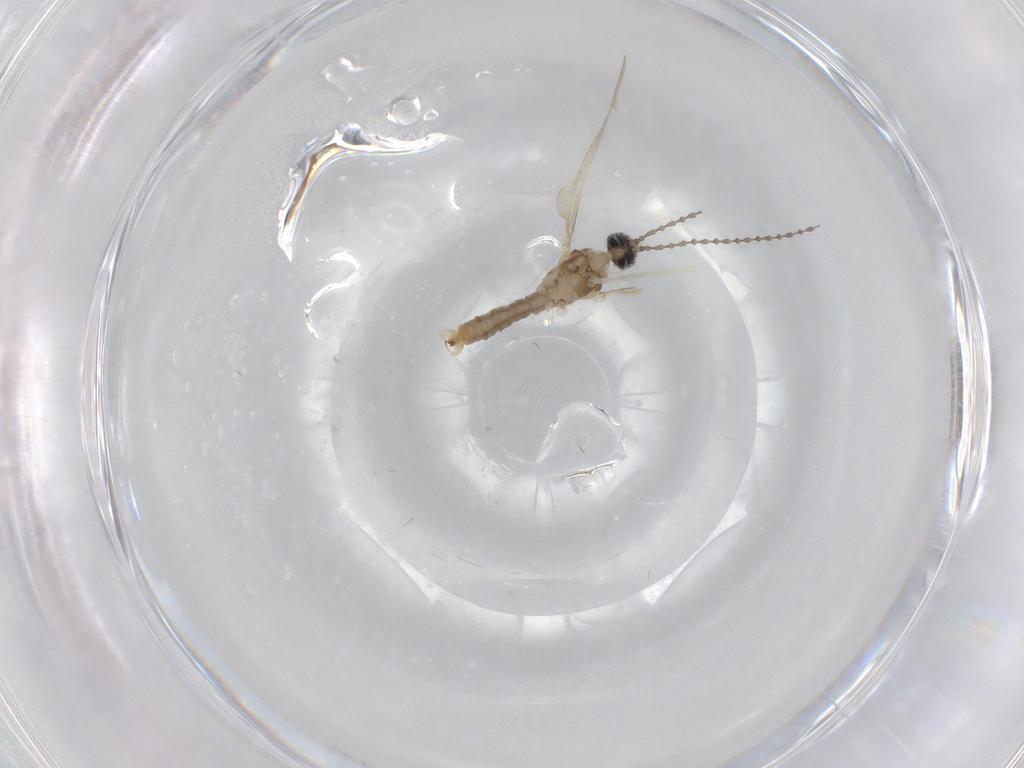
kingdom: Animalia
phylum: Arthropoda
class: Insecta
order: Diptera
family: Cecidomyiidae
